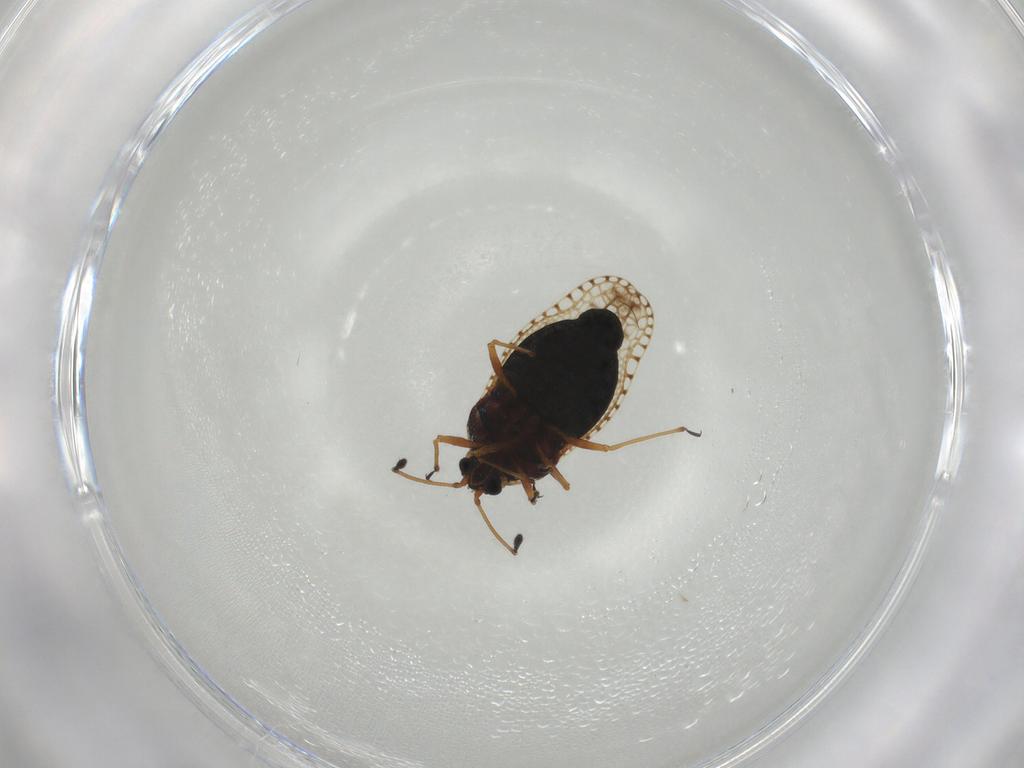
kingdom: Animalia
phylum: Arthropoda
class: Insecta
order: Hemiptera
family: Tingidae
